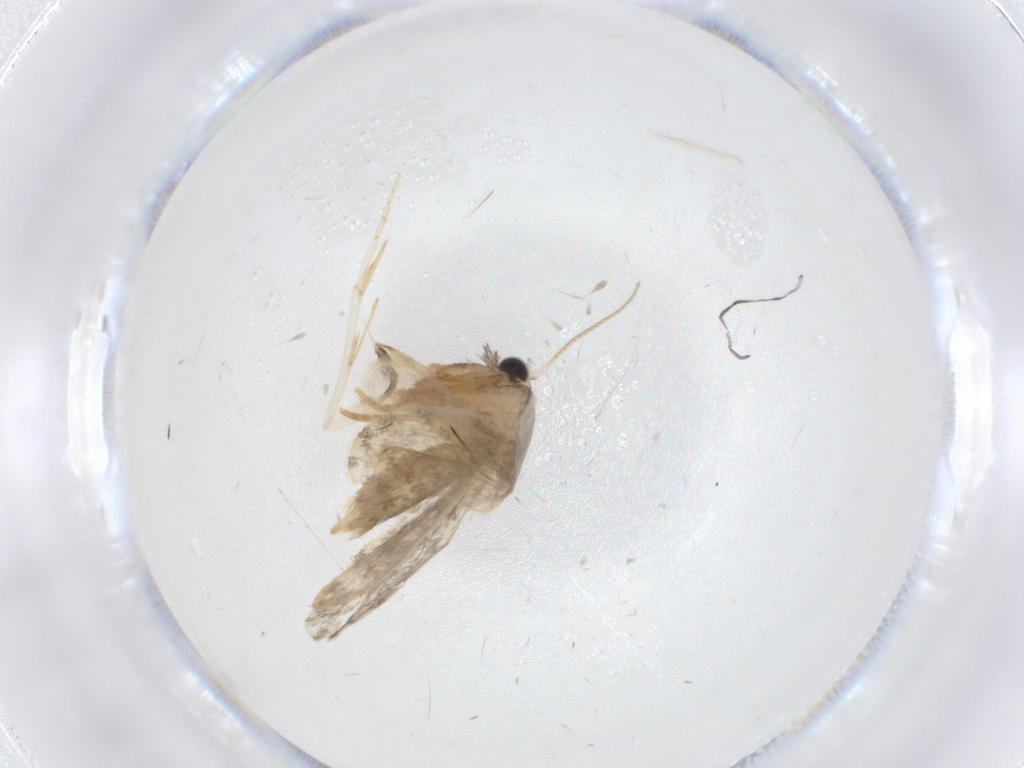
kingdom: Animalia
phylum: Arthropoda
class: Insecta
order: Lepidoptera
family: Psychidae
